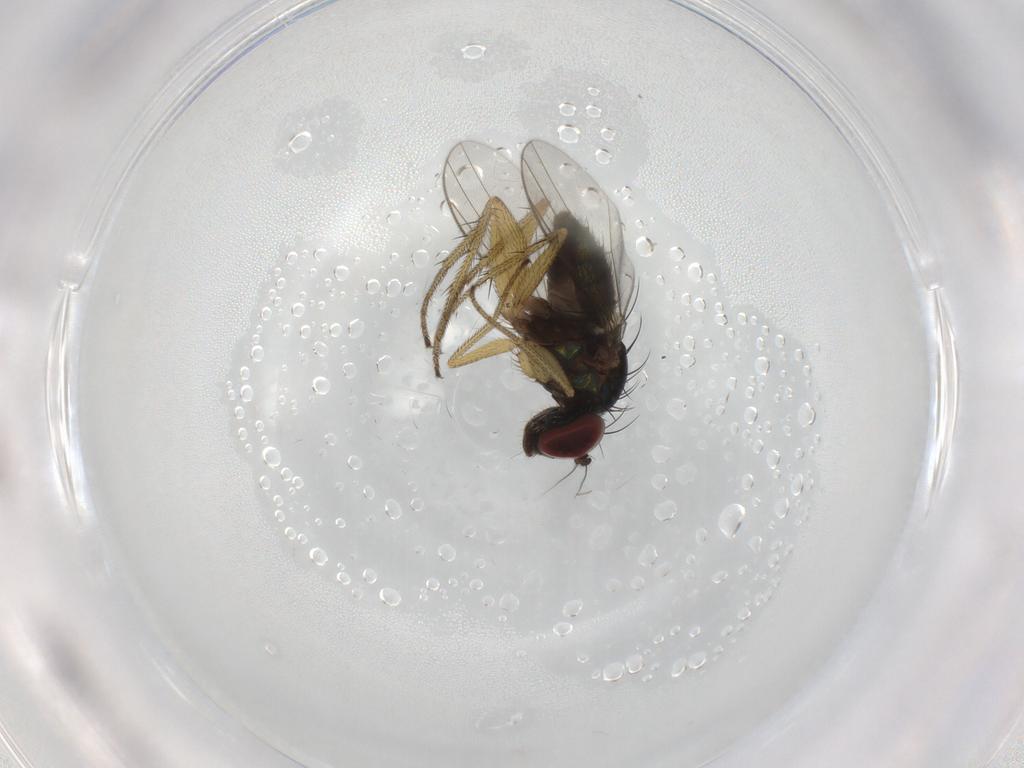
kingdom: Animalia
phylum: Arthropoda
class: Insecta
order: Diptera
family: Dolichopodidae
